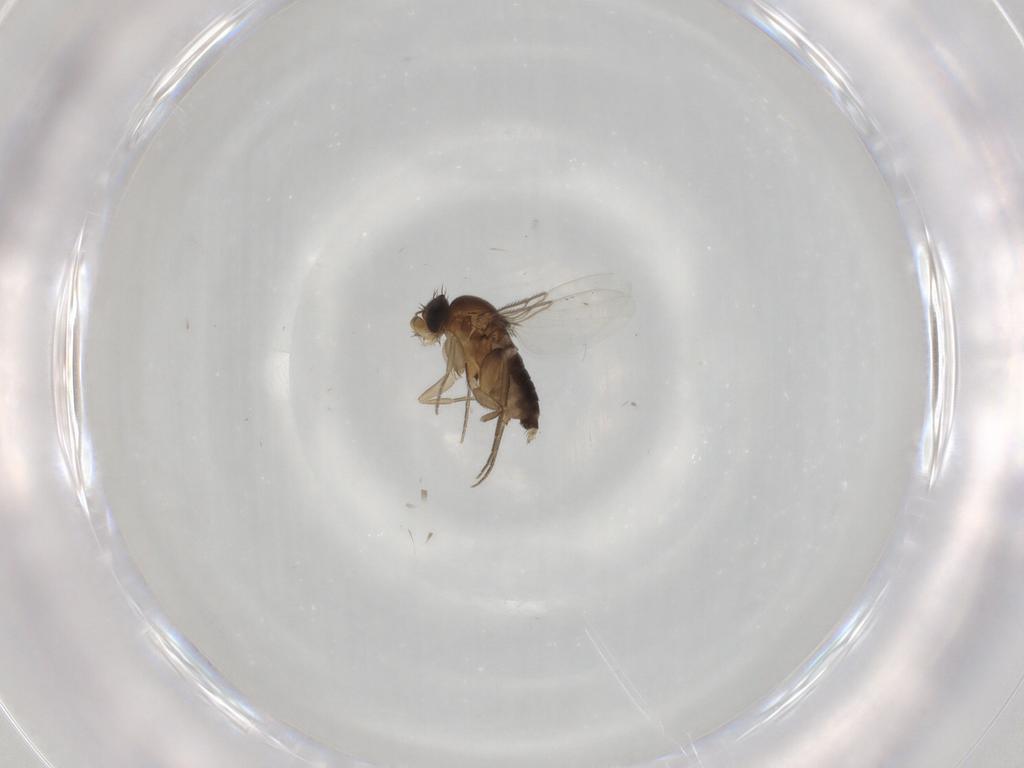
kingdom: Animalia
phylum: Arthropoda
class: Insecta
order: Diptera
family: Phoridae
